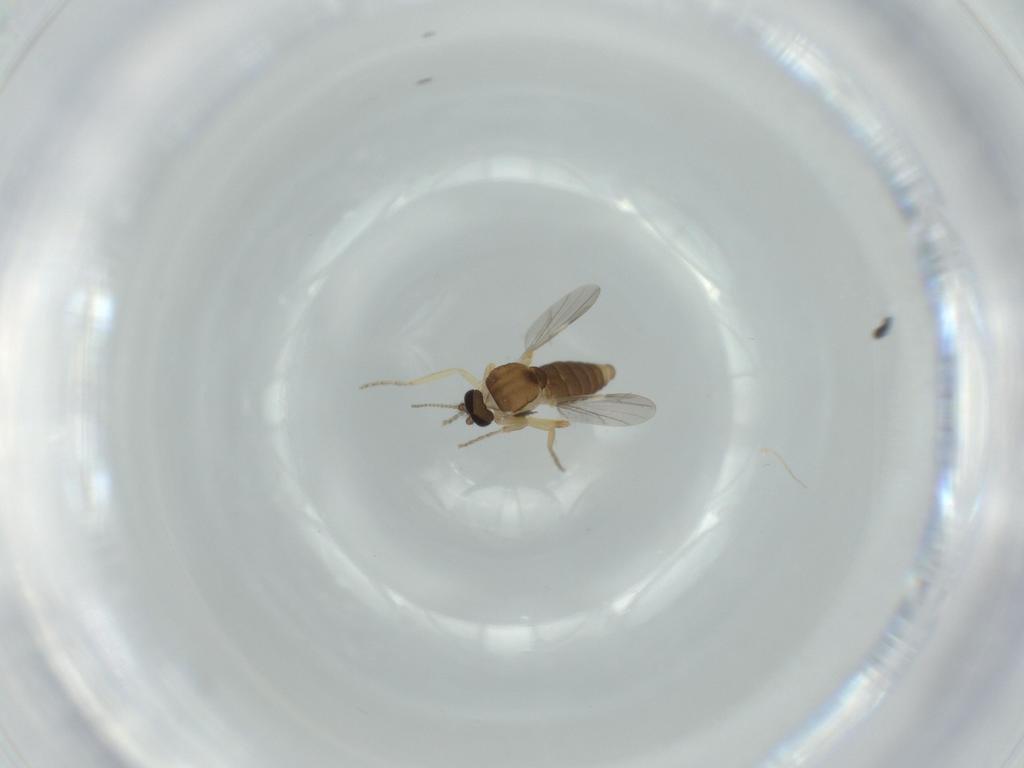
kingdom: Animalia
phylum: Arthropoda
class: Insecta
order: Diptera
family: Ceratopogonidae
